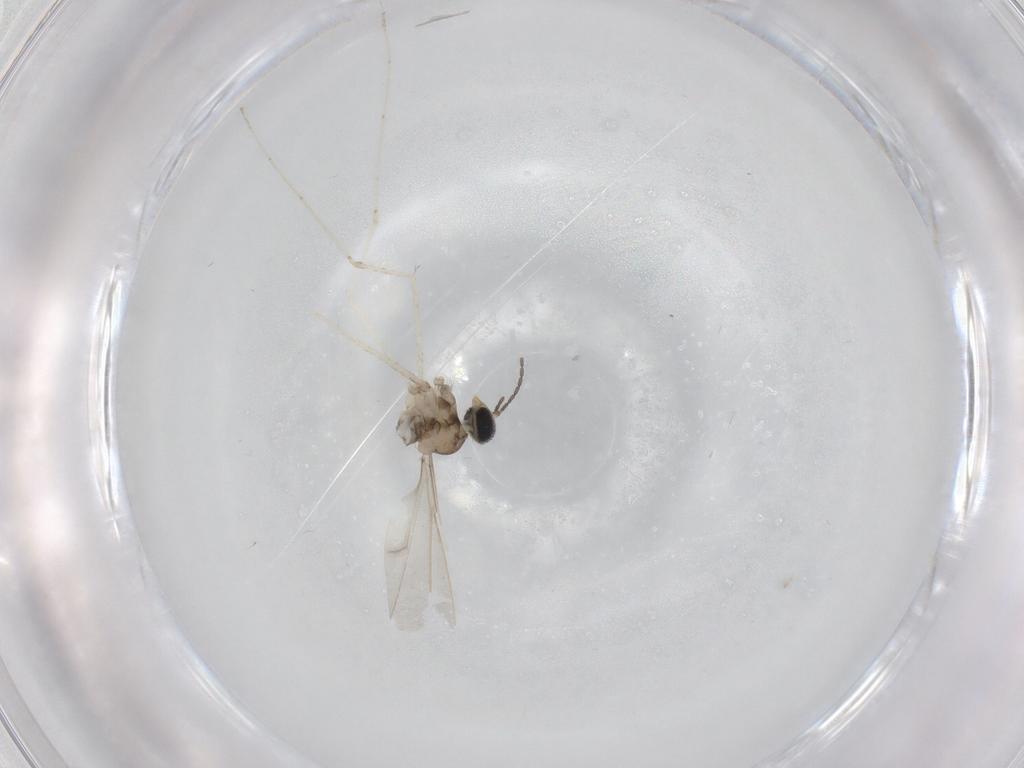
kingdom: Animalia
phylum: Arthropoda
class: Insecta
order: Diptera
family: Cecidomyiidae
